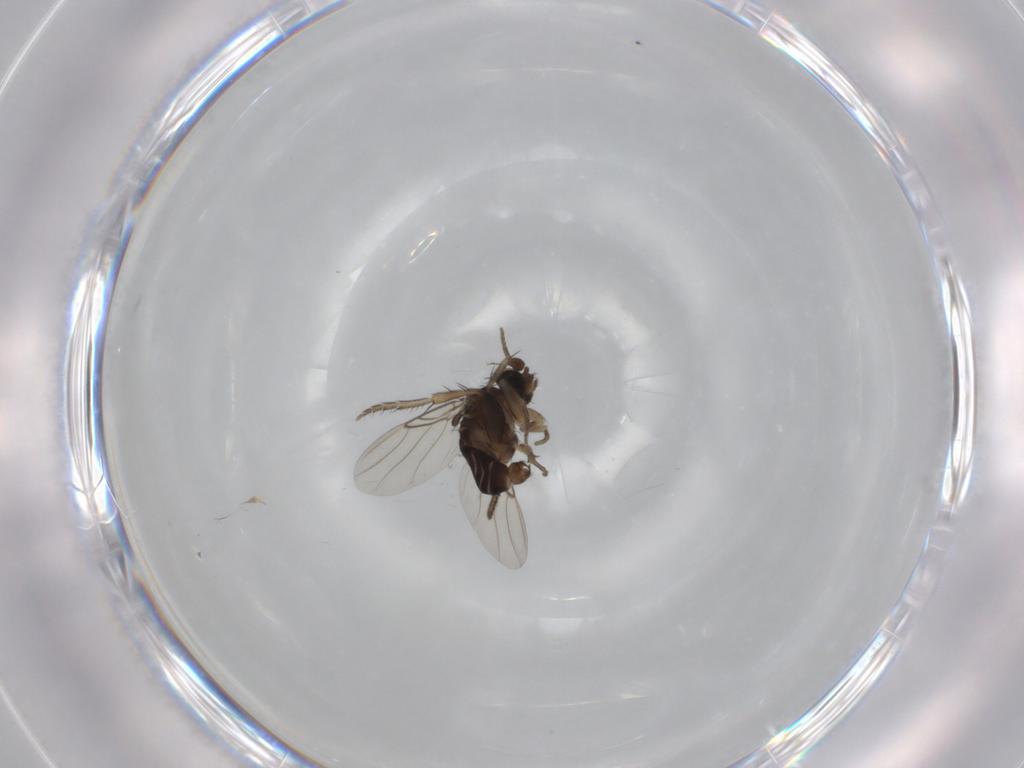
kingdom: Animalia
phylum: Arthropoda
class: Insecta
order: Diptera
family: Phoridae
